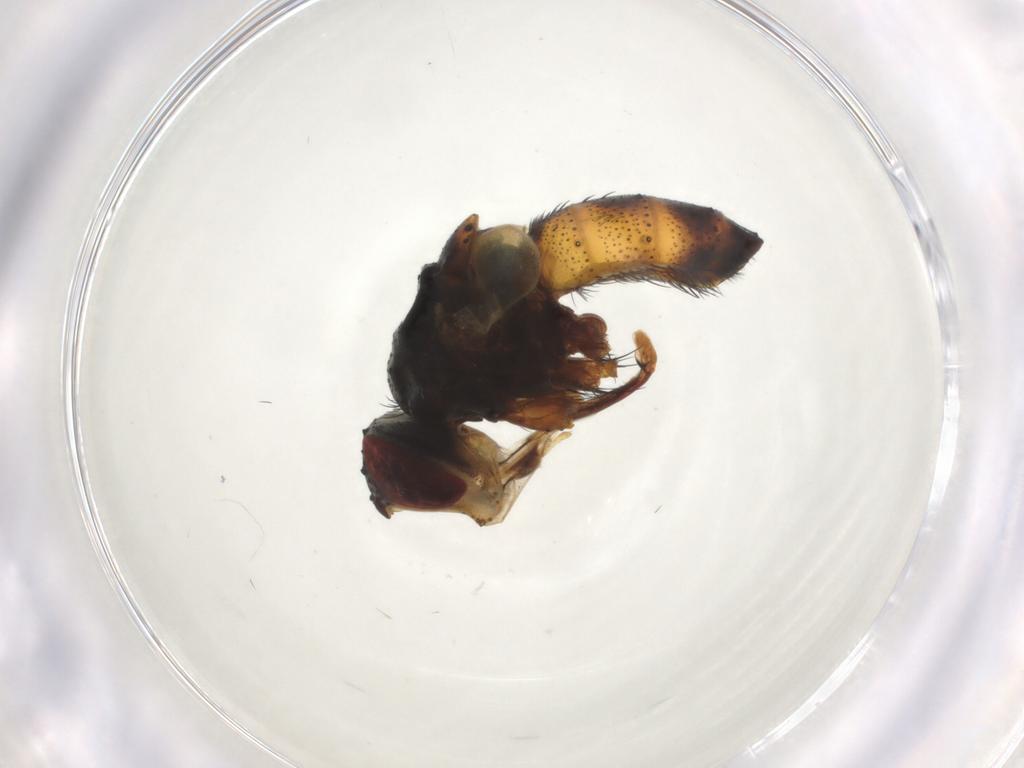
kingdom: Animalia
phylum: Arthropoda
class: Insecta
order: Diptera
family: Tachinidae
